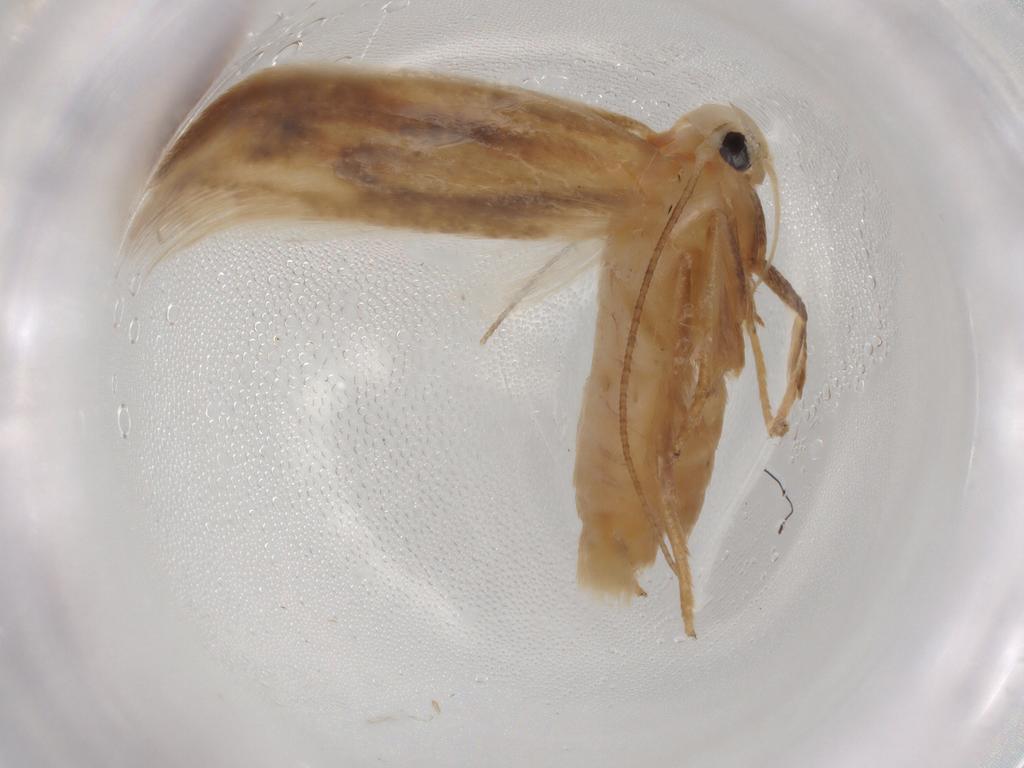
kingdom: Animalia
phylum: Arthropoda
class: Insecta
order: Lepidoptera
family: Geometridae
